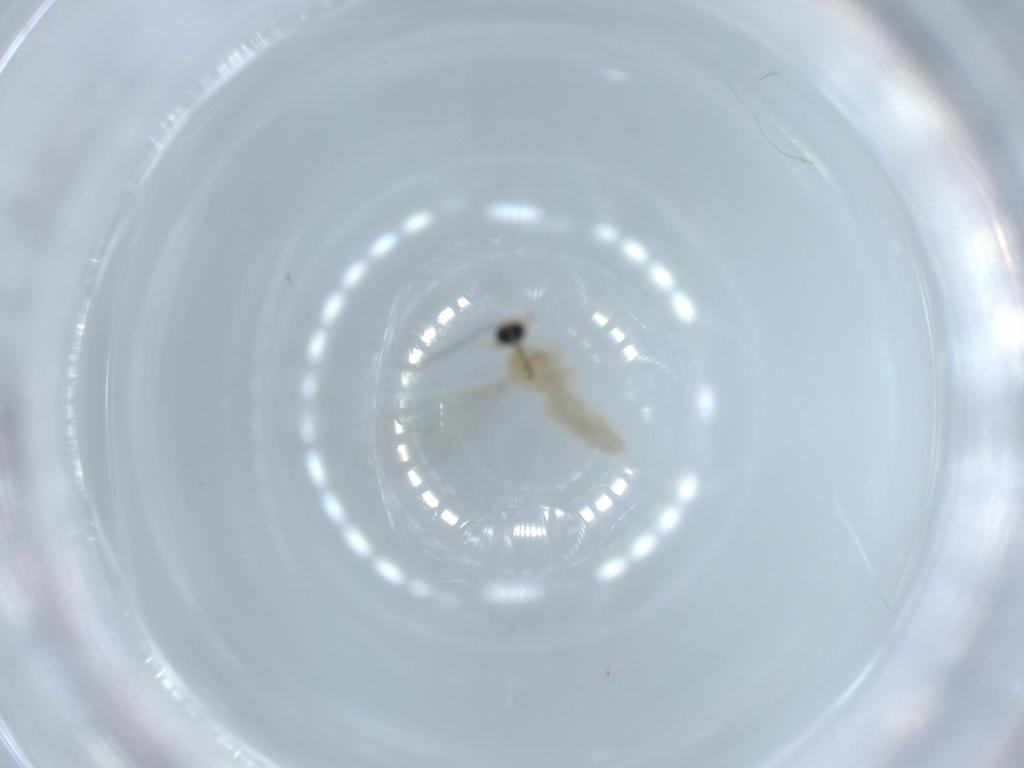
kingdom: Animalia
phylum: Arthropoda
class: Insecta
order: Diptera
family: Cecidomyiidae
